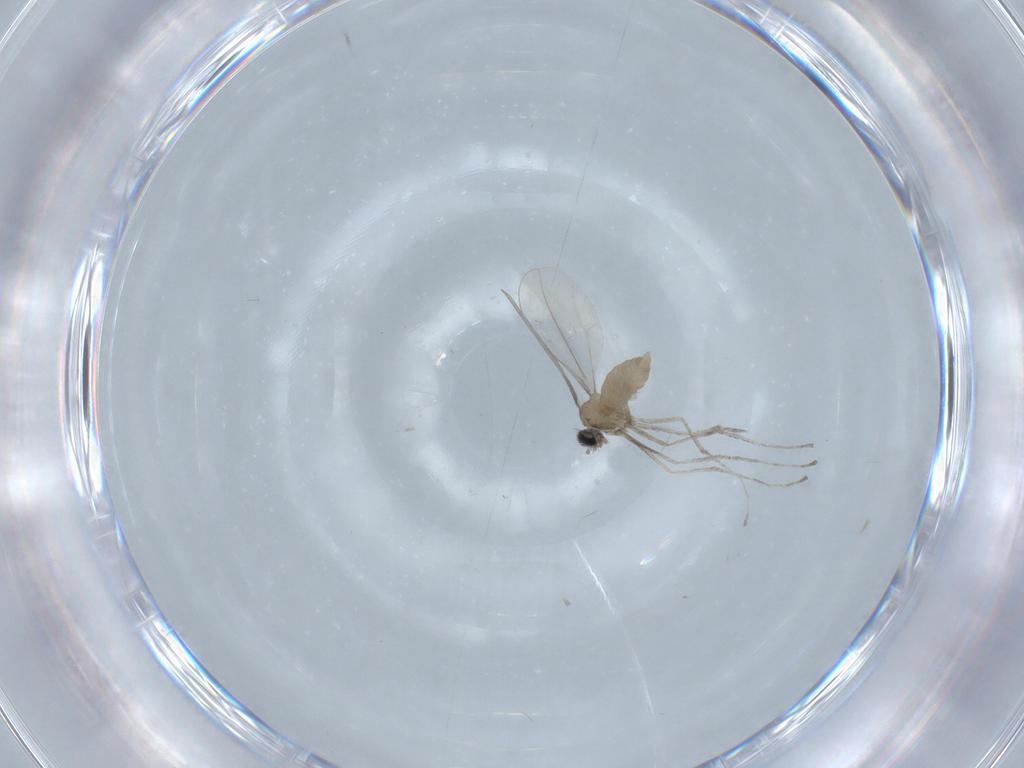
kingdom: Animalia
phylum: Arthropoda
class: Insecta
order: Diptera
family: Cecidomyiidae
